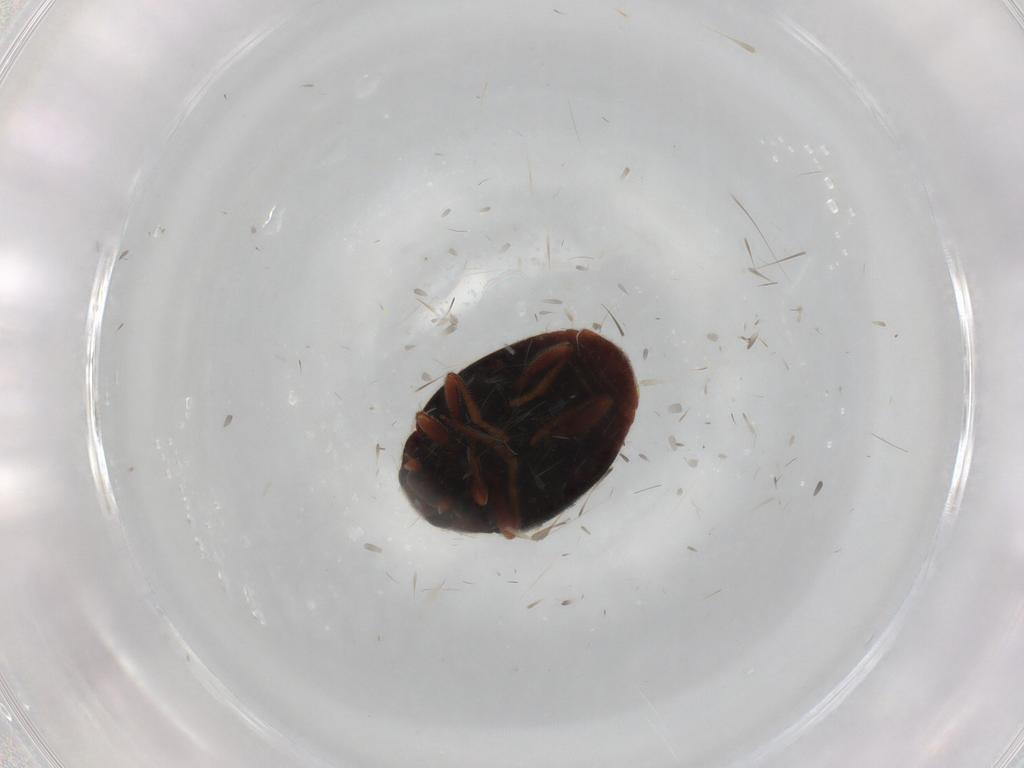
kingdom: Animalia
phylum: Arthropoda
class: Insecta
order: Coleoptera
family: Coccinellidae
